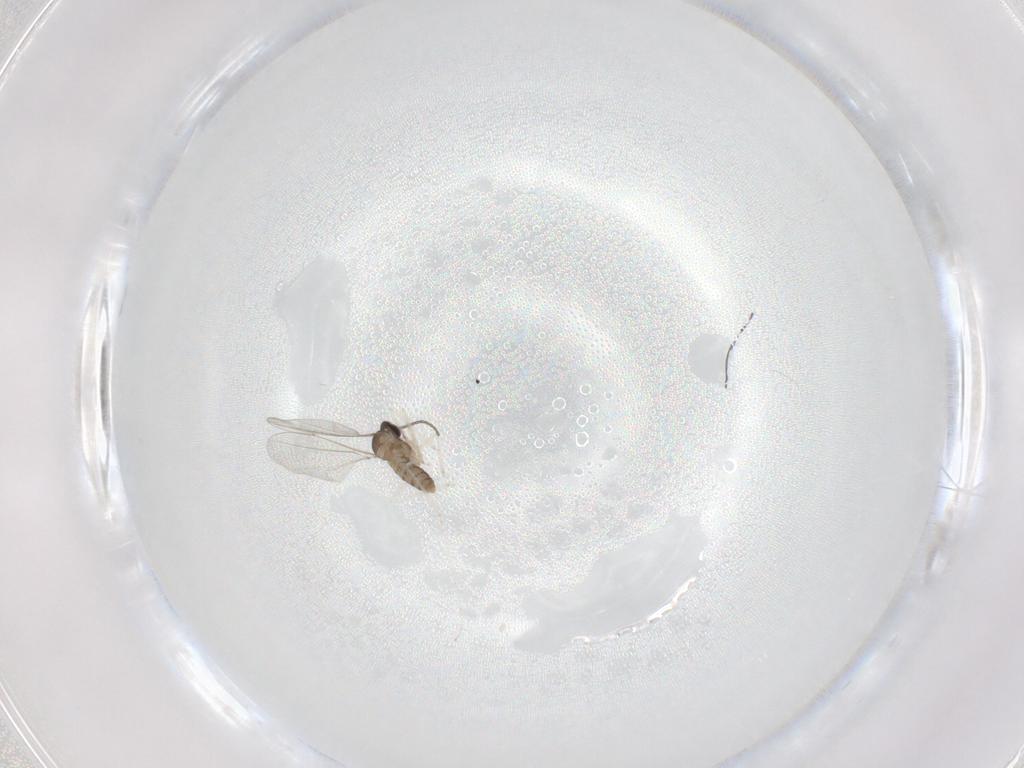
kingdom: Animalia
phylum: Arthropoda
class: Insecta
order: Diptera
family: Cecidomyiidae
